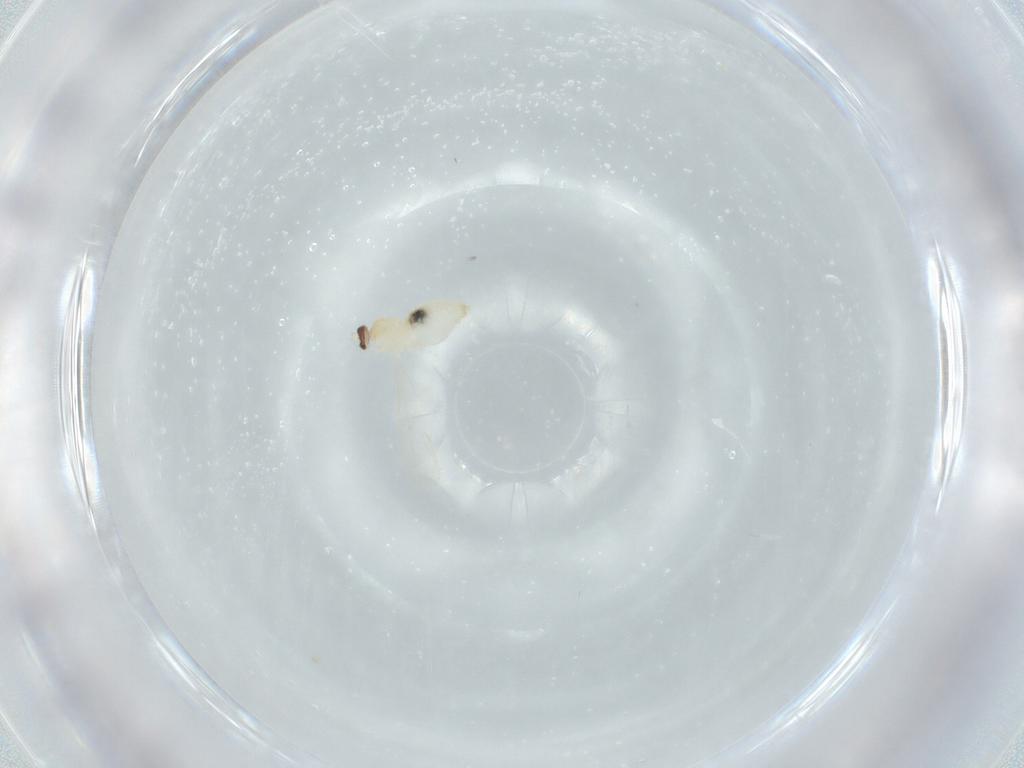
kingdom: Animalia
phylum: Arthropoda
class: Insecta
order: Diptera
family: Cecidomyiidae
